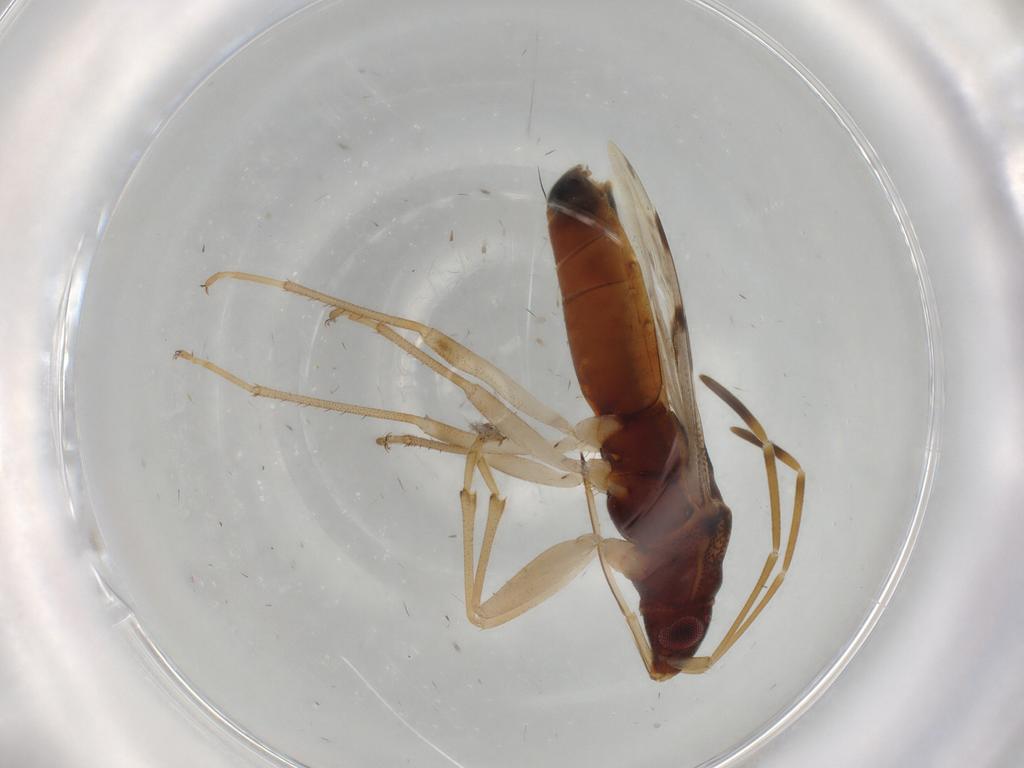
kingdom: Animalia
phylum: Arthropoda
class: Insecta
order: Hemiptera
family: Rhyparochromidae
